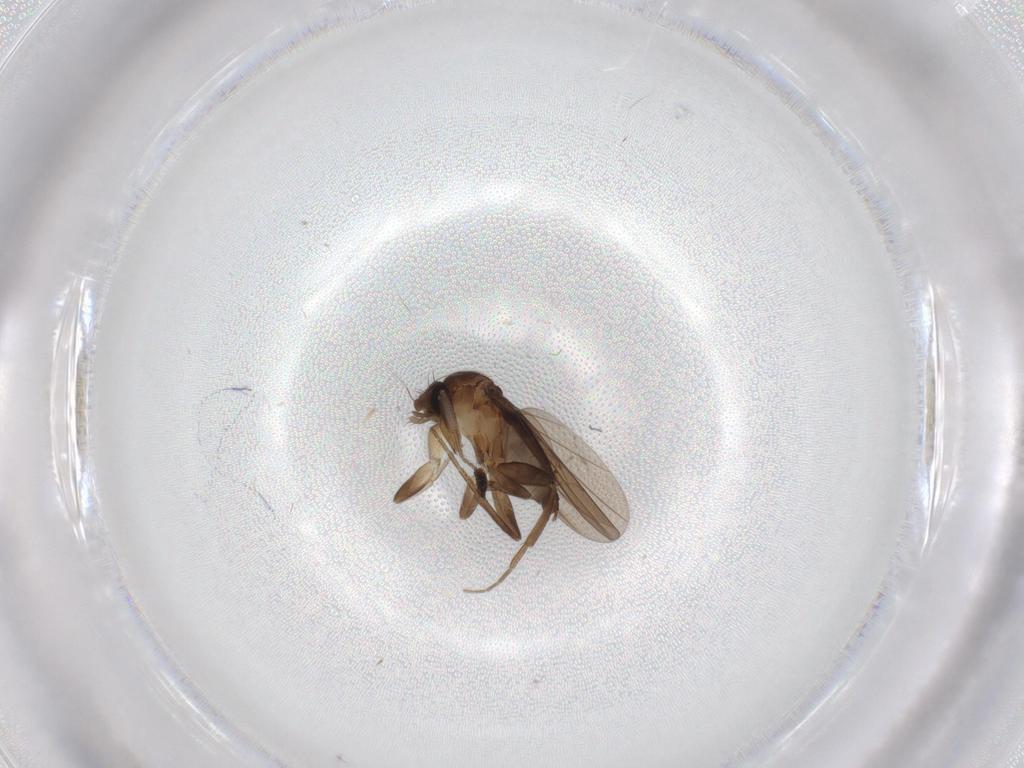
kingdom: Animalia
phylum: Arthropoda
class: Insecta
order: Diptera
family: Phoridae
